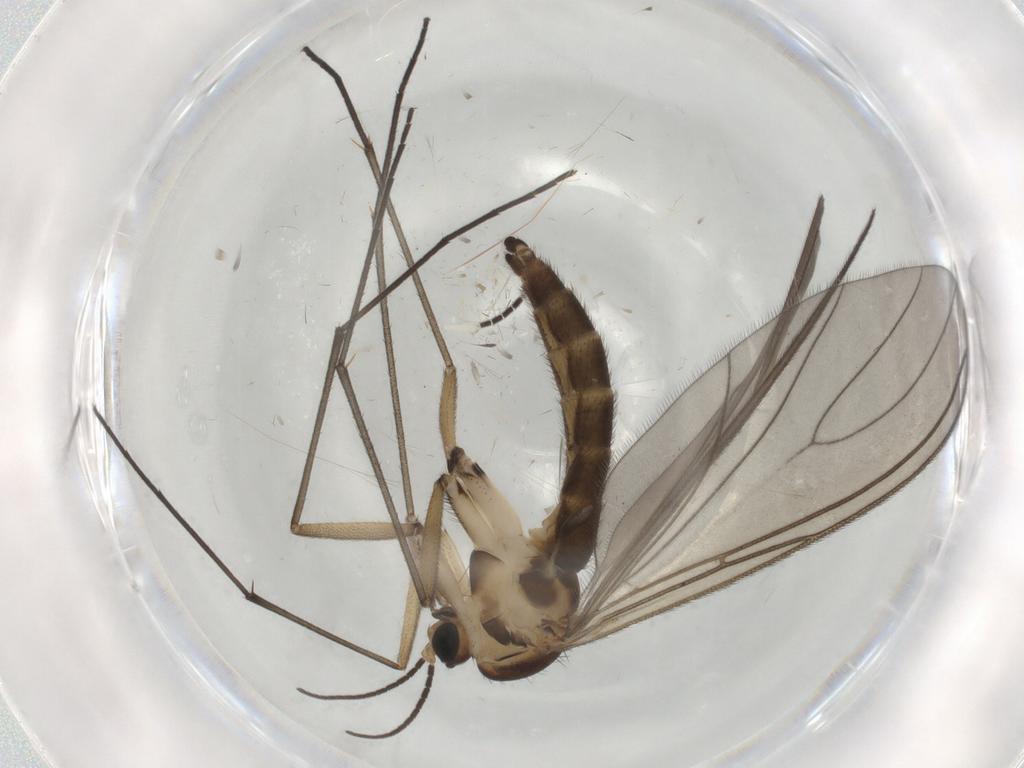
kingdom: Animalia
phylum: Arthropoda
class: Insecta
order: Diptera
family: Sciaridae
